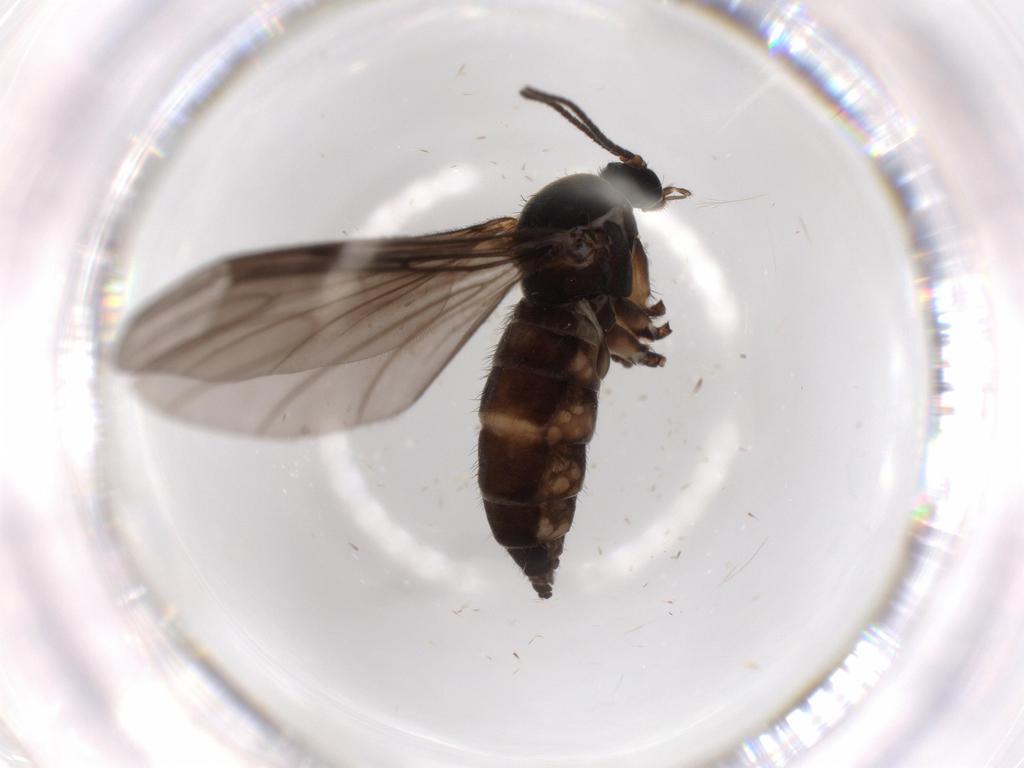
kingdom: Animalia
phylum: Arthropoda
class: Insecta
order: Diptera
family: Sciaridae
